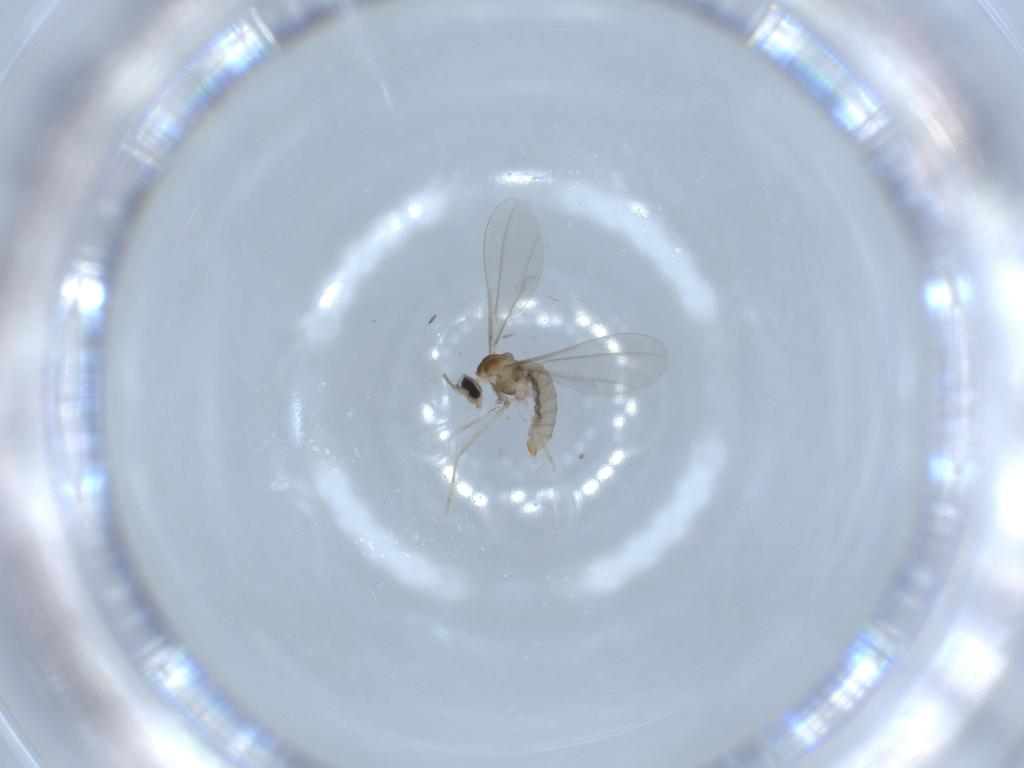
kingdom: Animalia
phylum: Arthropoda
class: Insecta
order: Diptera
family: Cecidomyiidae
